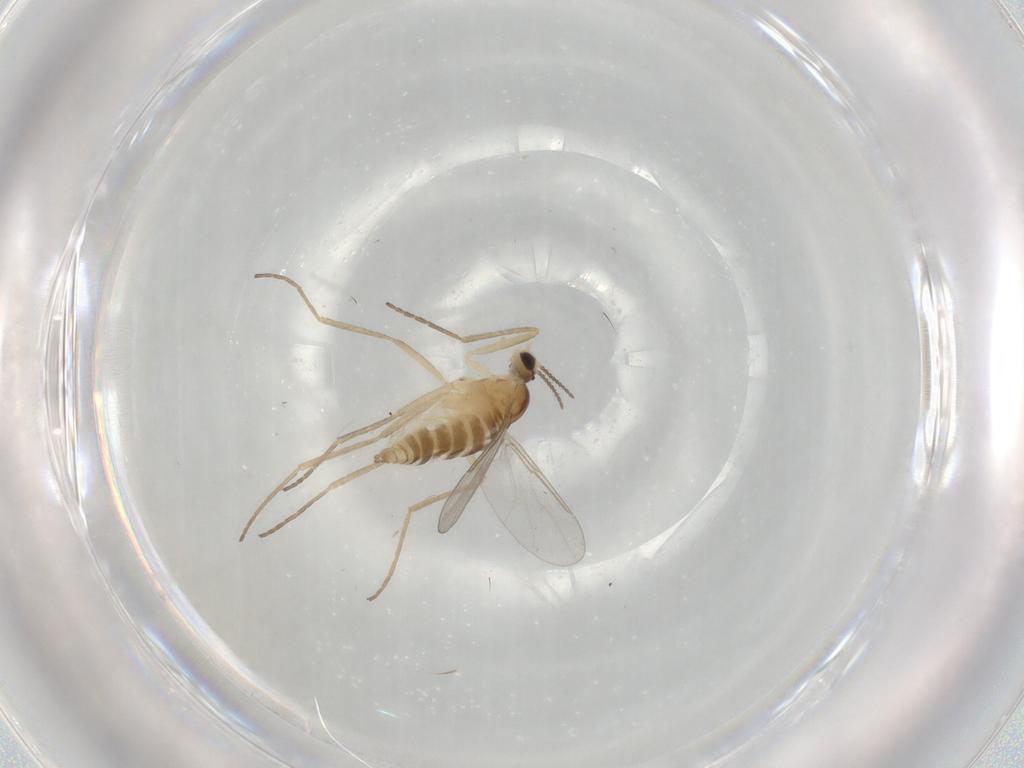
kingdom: Animalia
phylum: Arthropoda
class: Insecta
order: Diptera
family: Cecidomyiidae
